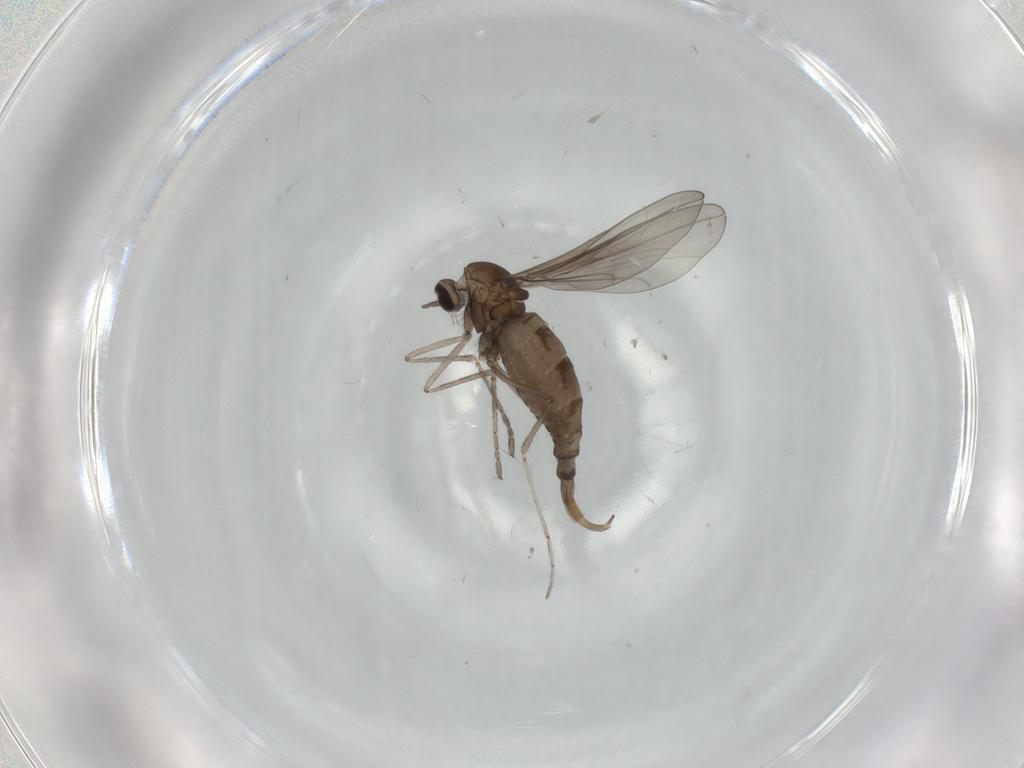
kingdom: Animalia
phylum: Arthropoda
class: Insecta
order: Diptera
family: Cecidomyiidae
